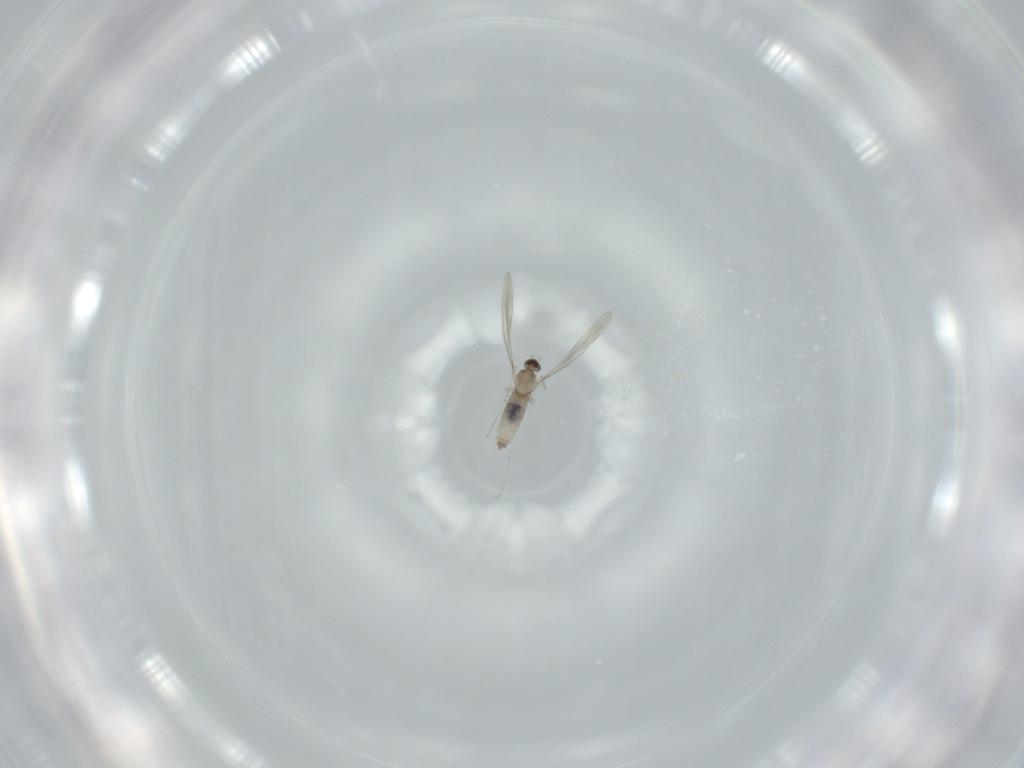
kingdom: Animalia
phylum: Arthropoda
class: Insecta
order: Diptera
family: Cecidomyiidae
